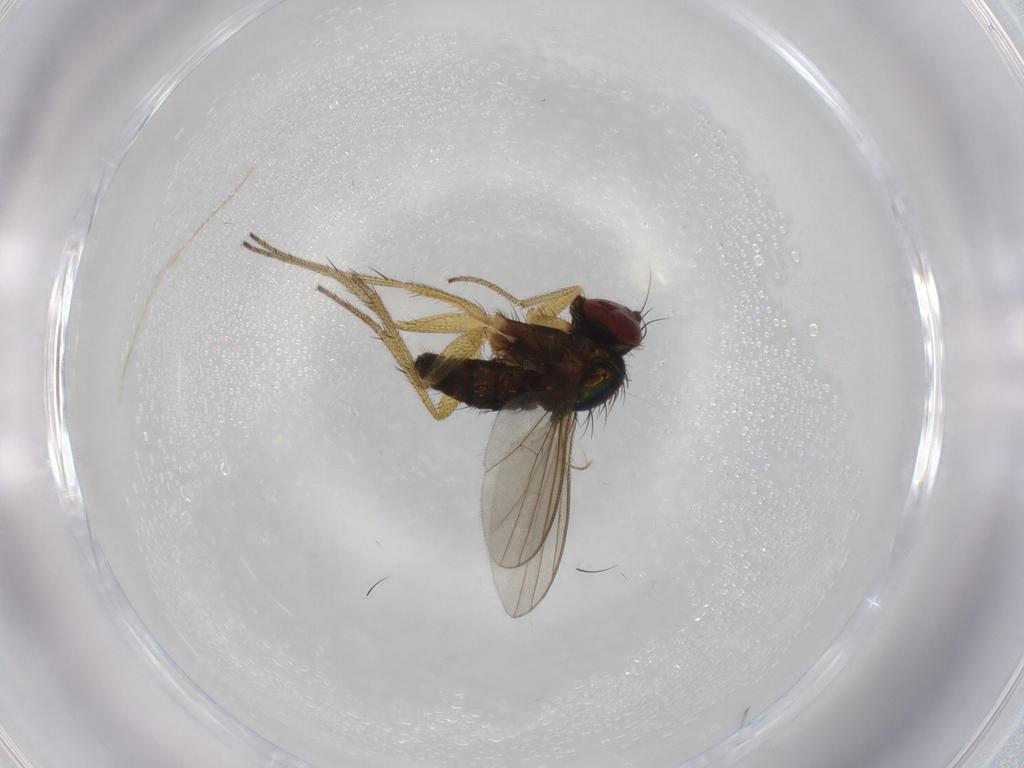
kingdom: Animalia
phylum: Arthropoda
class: Insecta
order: Diptera
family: Dolichopodidae
